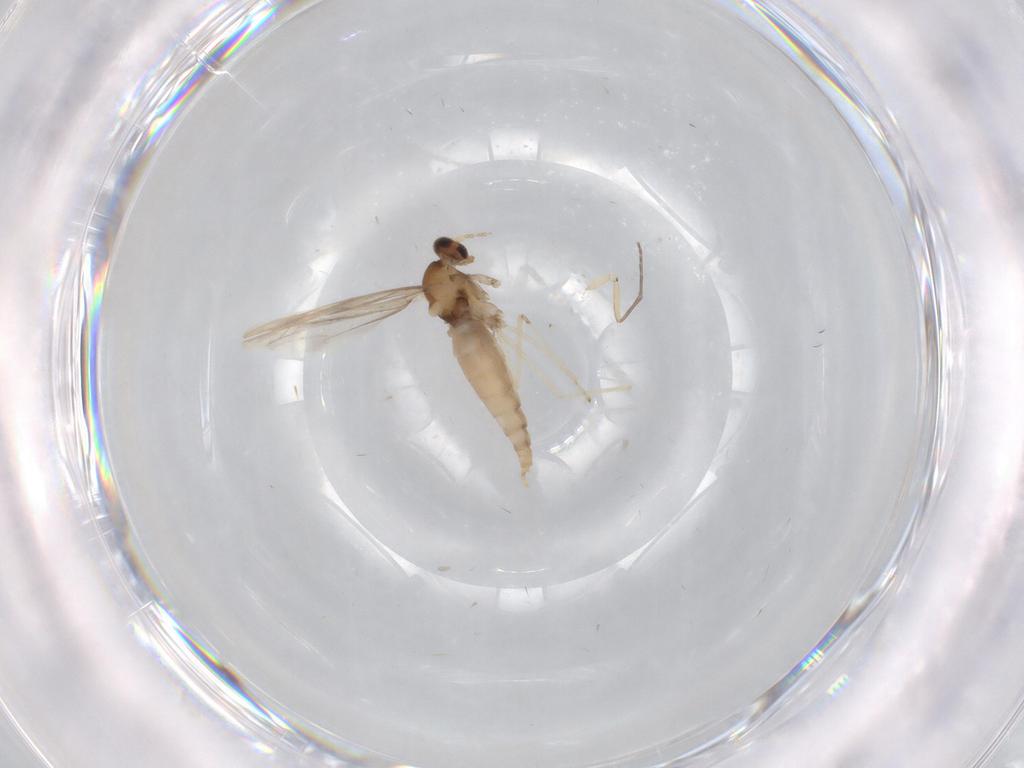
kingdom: Animalia
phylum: Arthropoda
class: Insecta
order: Diptera
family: Cecidomyiidae
